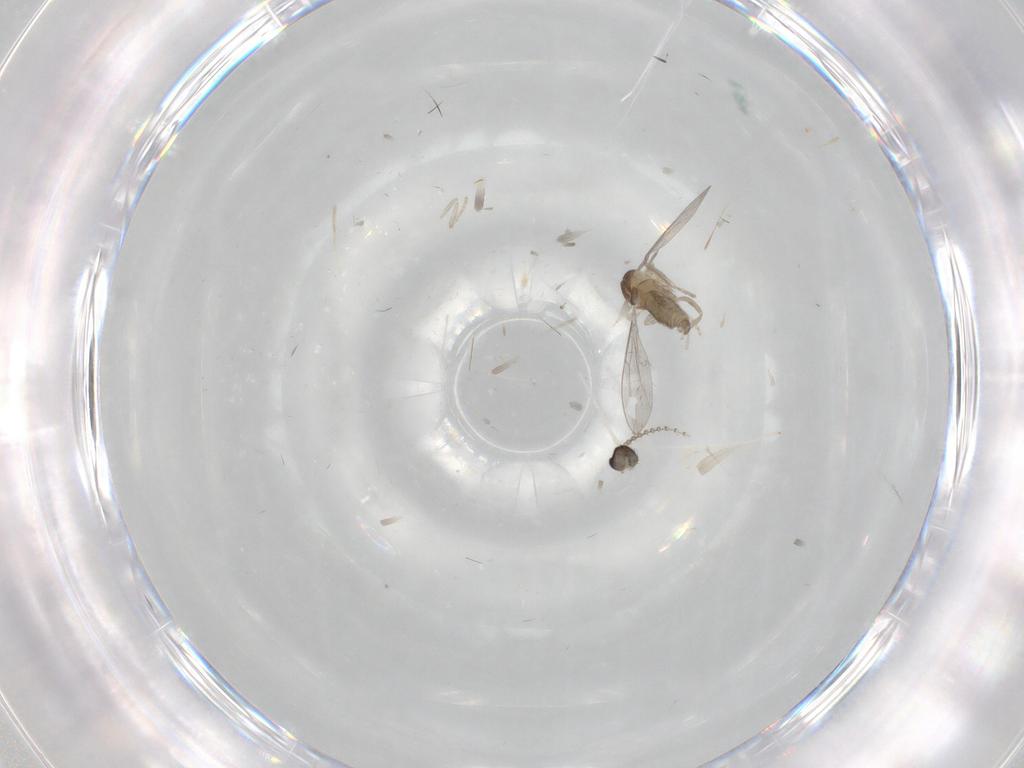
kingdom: Animalia
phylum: Arthropoda
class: Insecta
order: Diptera
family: Cecidomyiidae
